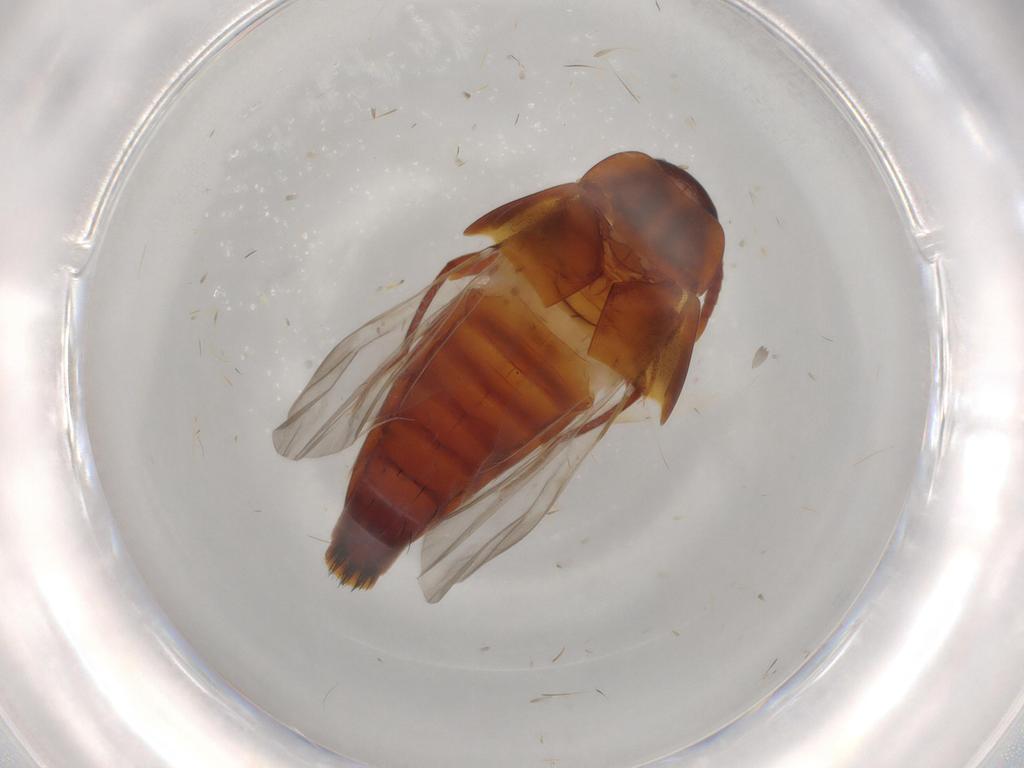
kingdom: Animalia
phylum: Arthropoda
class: Insecta
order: Coleoptera
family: Staphylinidae
